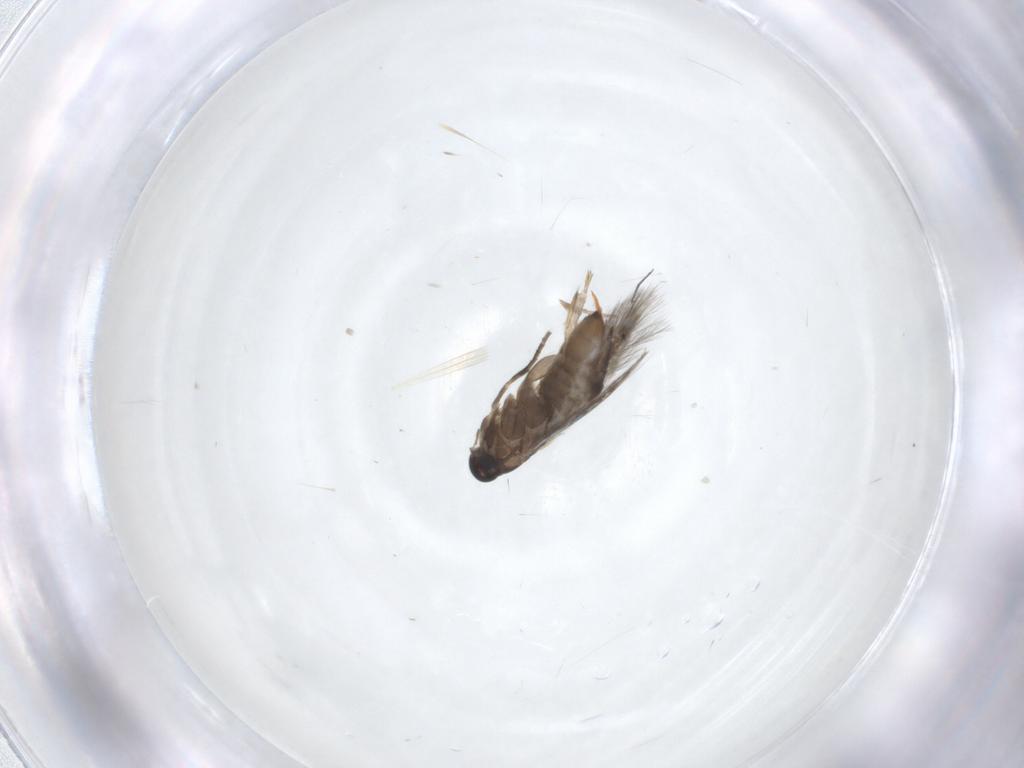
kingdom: Animalia
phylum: Arthropoda
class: Insecta
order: Lepidoptera
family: Heliozelidae
